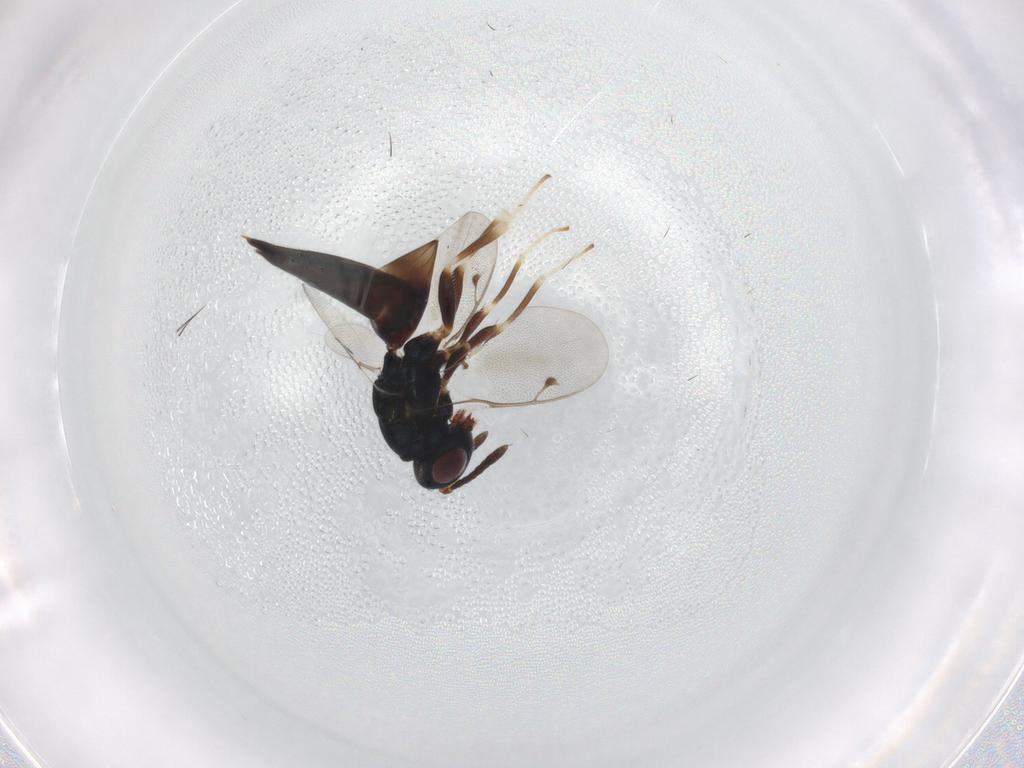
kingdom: Animalia
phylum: Arthropoda
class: Insecta
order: Hymenoptera
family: Pteromalidae
